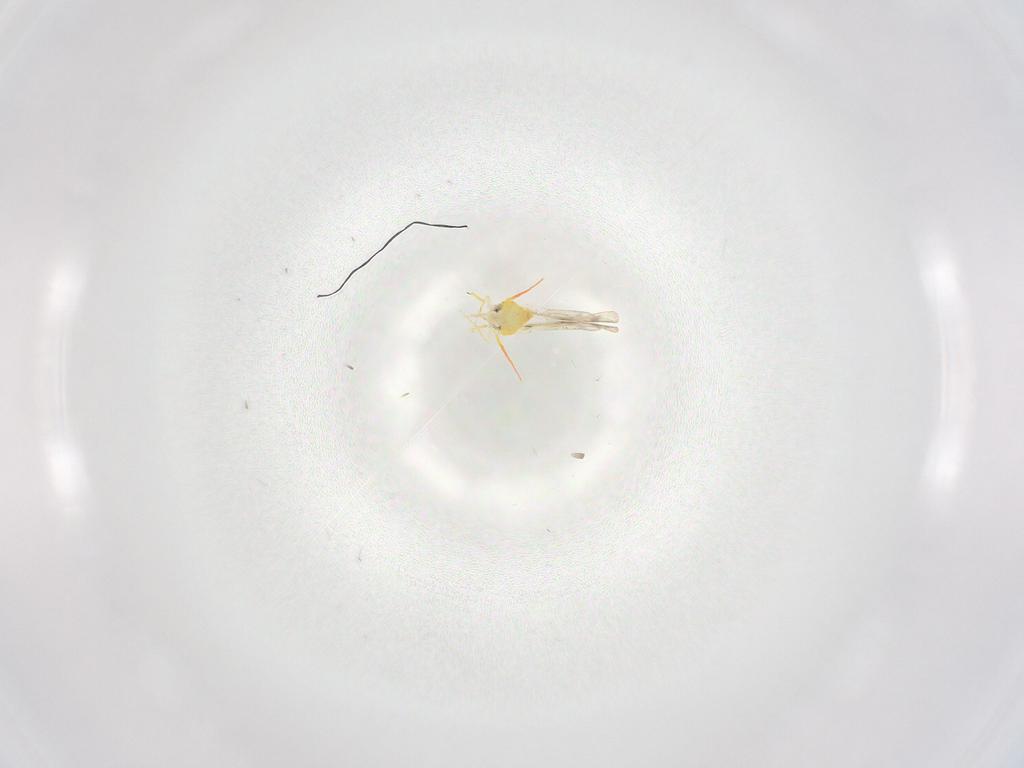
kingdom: Animalia
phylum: Arthropoda
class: Insecta
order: Hemiptera
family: Aleyrodidae
